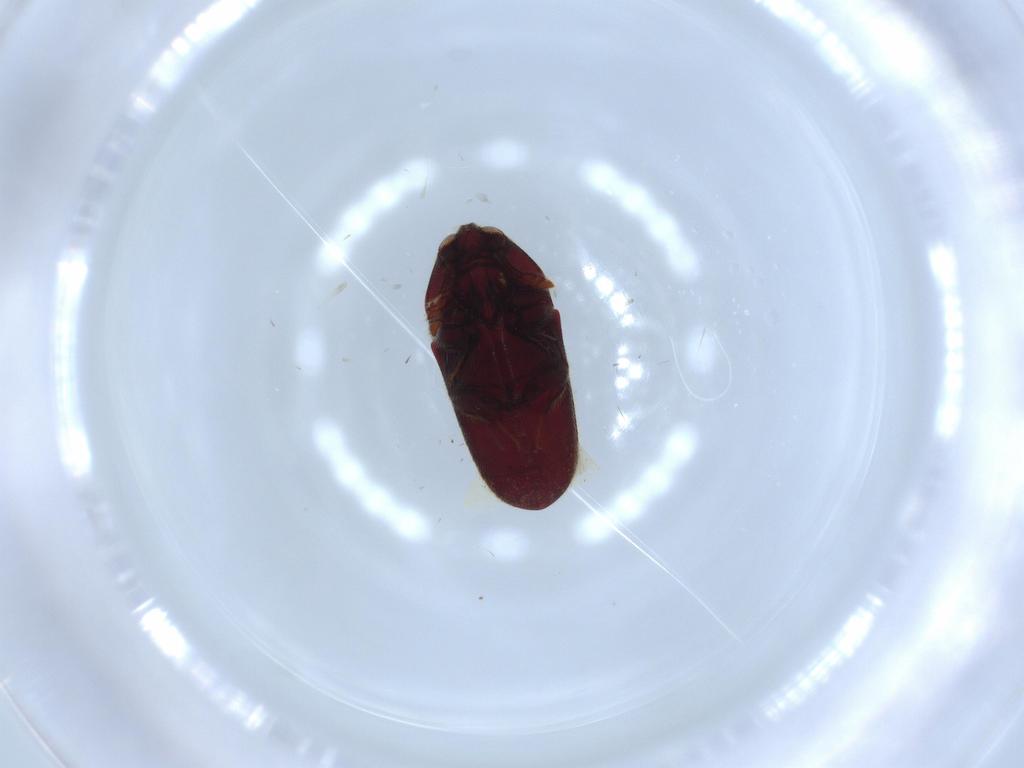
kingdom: Animalia
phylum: Arthropoda
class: Insecta
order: Coleoptera
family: Throscidae
